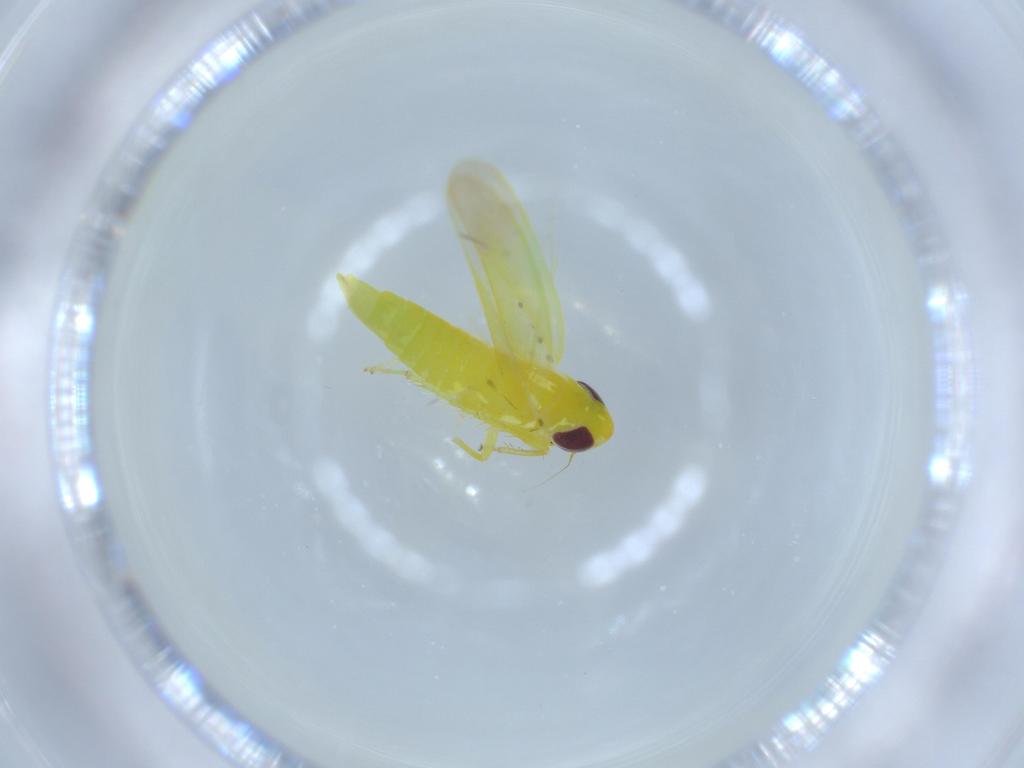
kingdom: Animalia
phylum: Arthropoda
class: Insecta
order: Hemiptera
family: Cicadellidae
